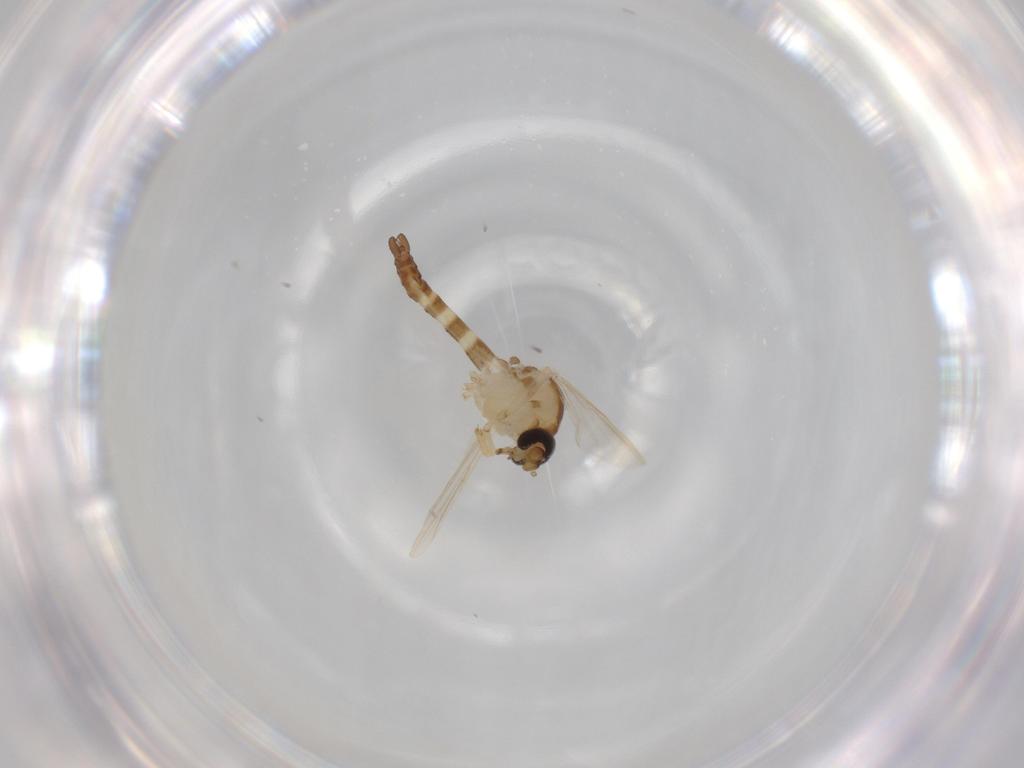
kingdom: Animalia
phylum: Arthropoda
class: Insecta
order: Diptera
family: Sciaridae
